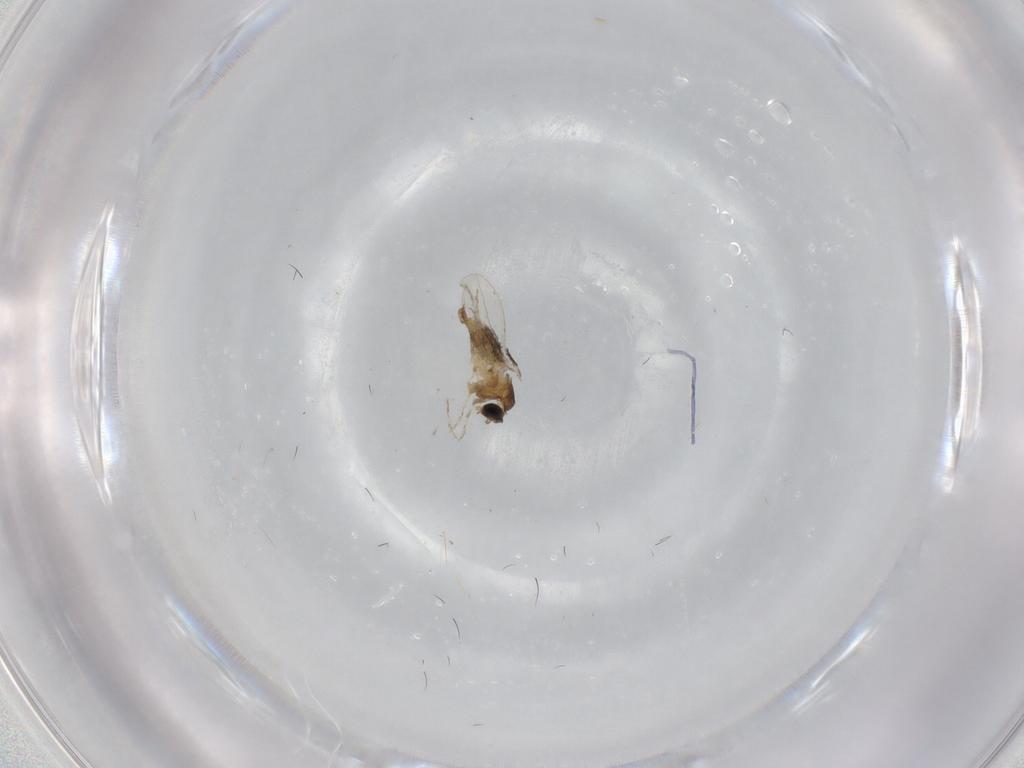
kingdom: Animalia
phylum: Arthropoda
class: Insecta
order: Diptera
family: Cecidomyiidae
